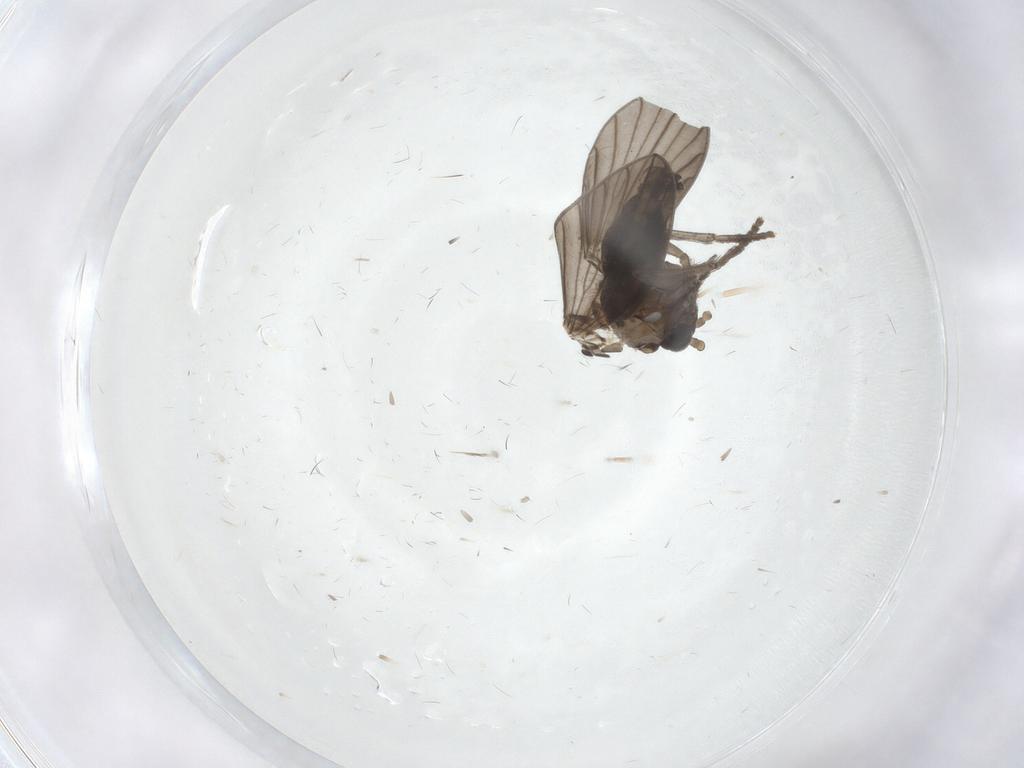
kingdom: Animalia
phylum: Arthropoda
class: Insecta
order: Diptera
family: Psychodidae
